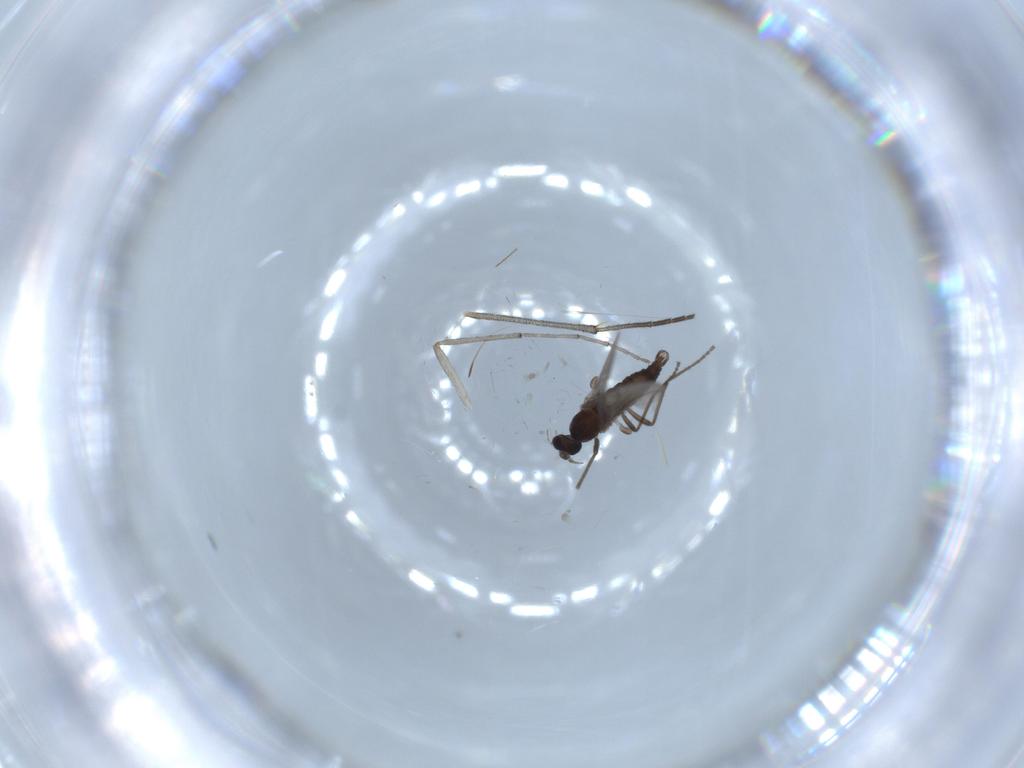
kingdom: Animalia
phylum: Arthropoda
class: Insecta
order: Diptera
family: Cecidomyiidae
